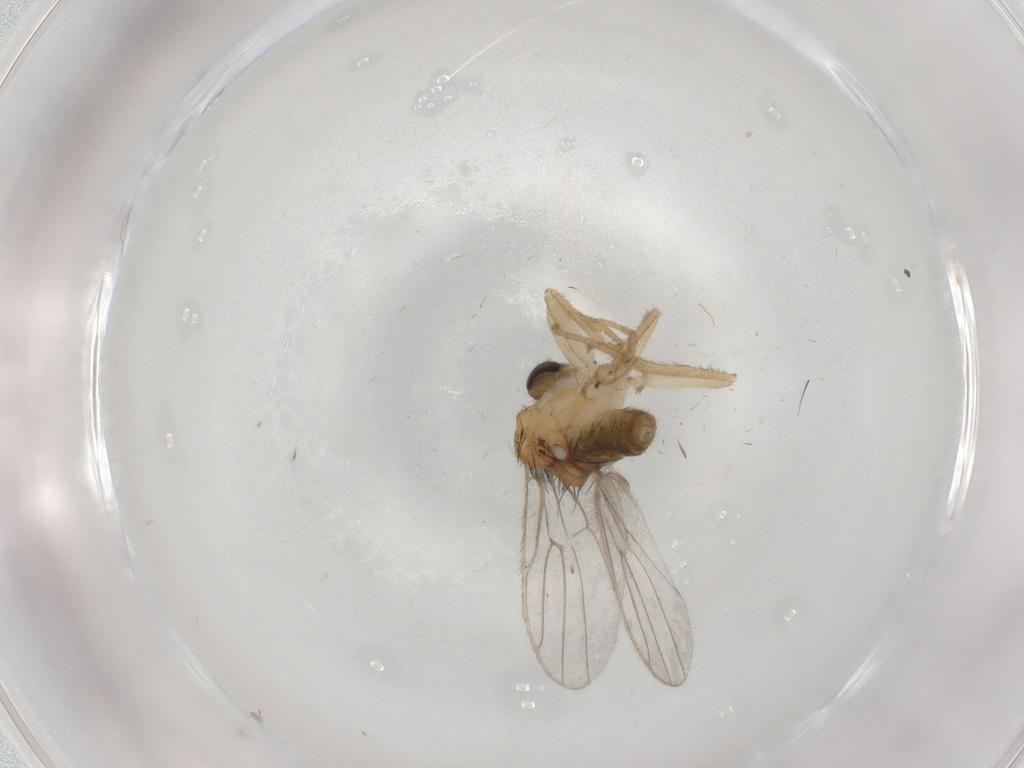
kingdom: Animalia
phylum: Arthropoda
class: Insecta
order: Diptera
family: Hybotidae
